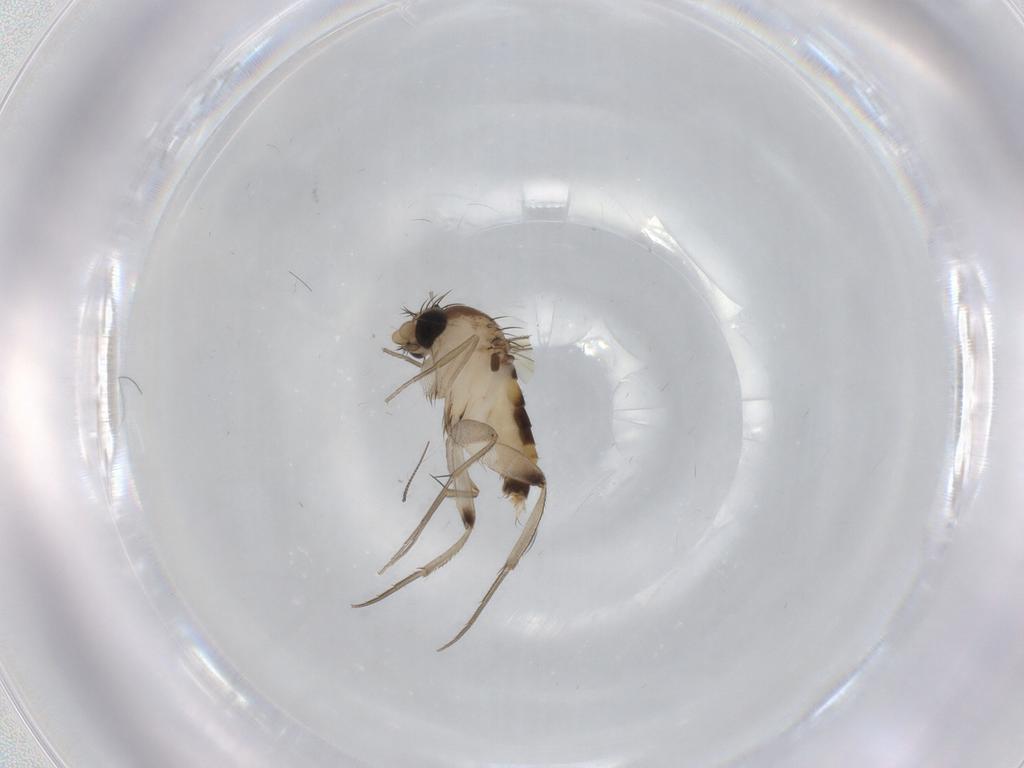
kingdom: Animalia
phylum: Arthropoda
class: Insecta
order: Diptera
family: Phoridae
